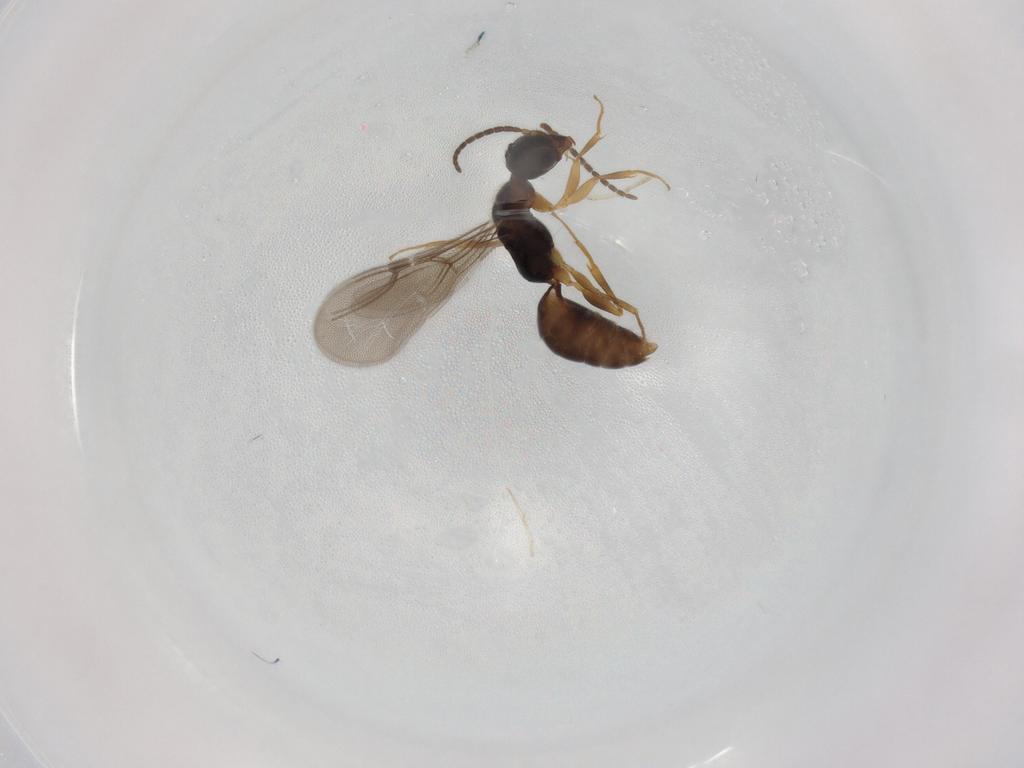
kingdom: Animalia
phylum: Arthropoda
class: Insecta
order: Hymenoptera
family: Bethylidae
